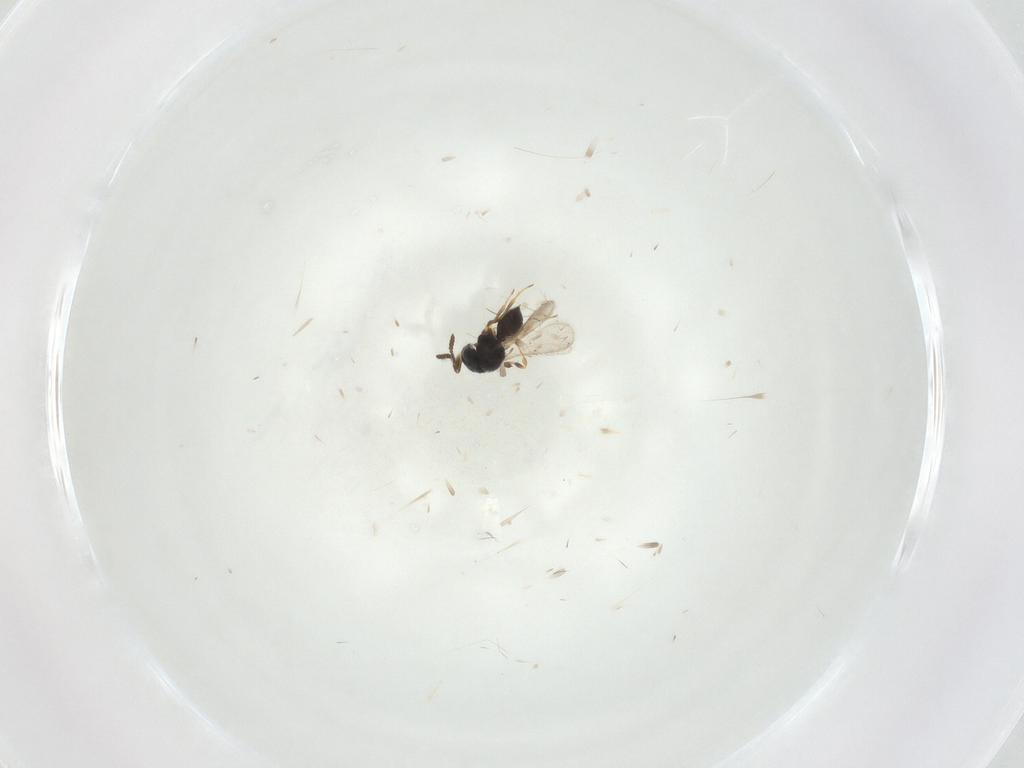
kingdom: Animalia
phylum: Arthropoda
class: Insecta
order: Hymenoptera
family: Scelionidae
